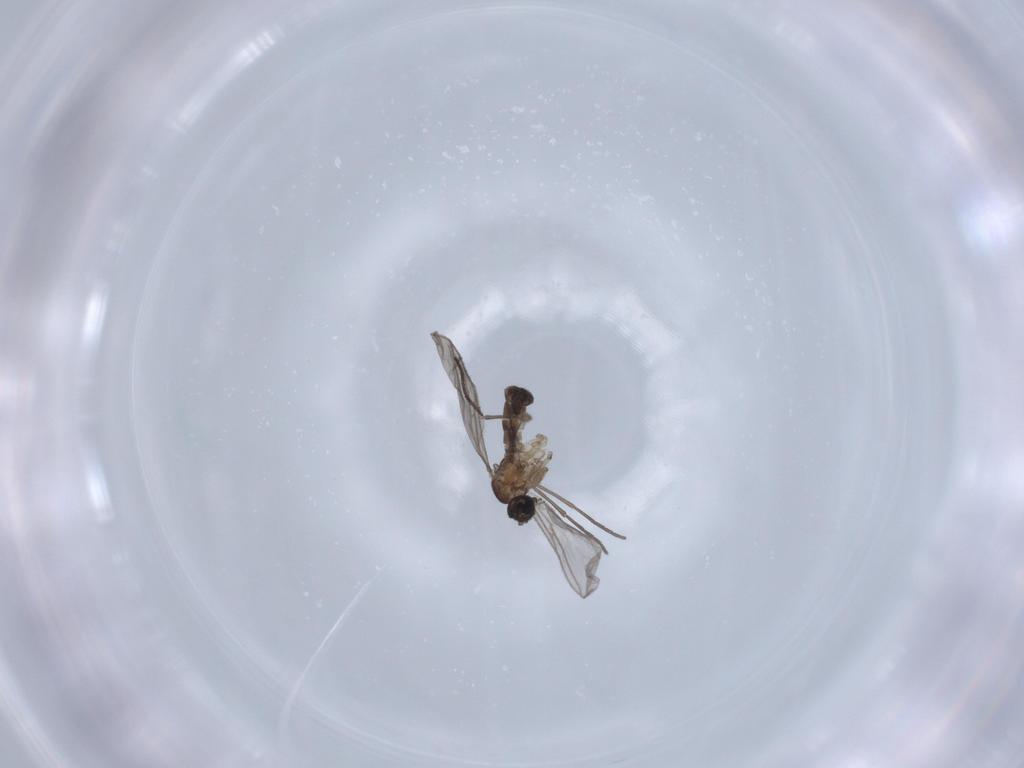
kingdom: Animalia
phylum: Arthropoda
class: Insecta
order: Diptera
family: Sciaridae
